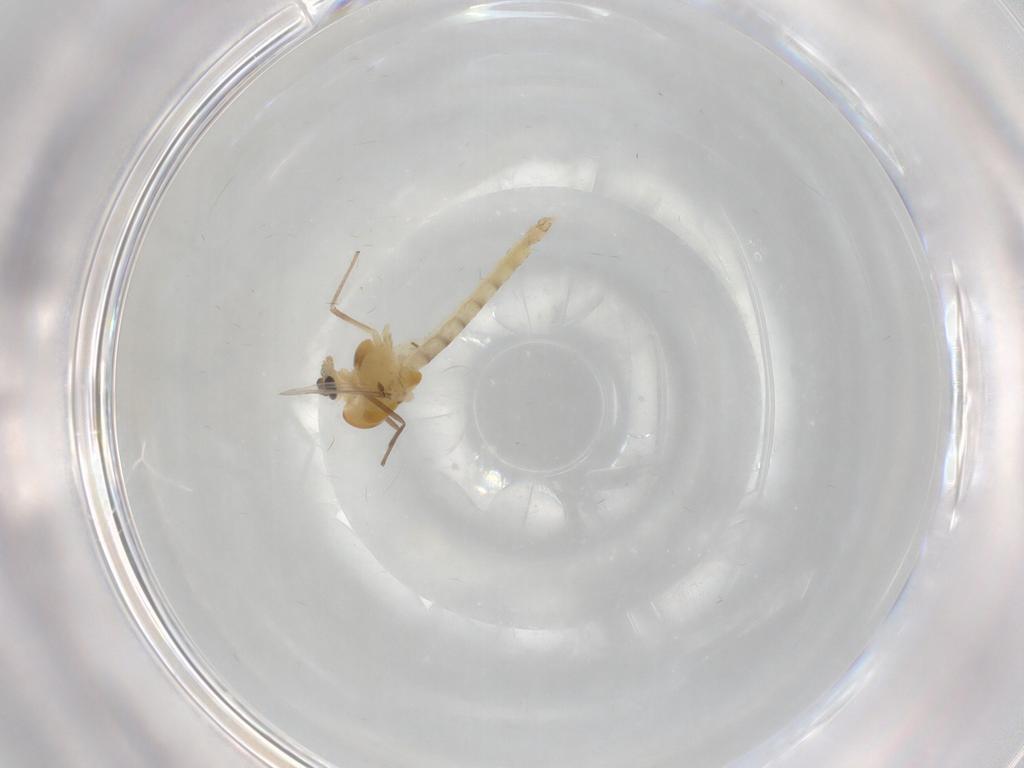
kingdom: Animalia
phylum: Arthropoda
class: Insecta
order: Diptera
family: Chironomidae
